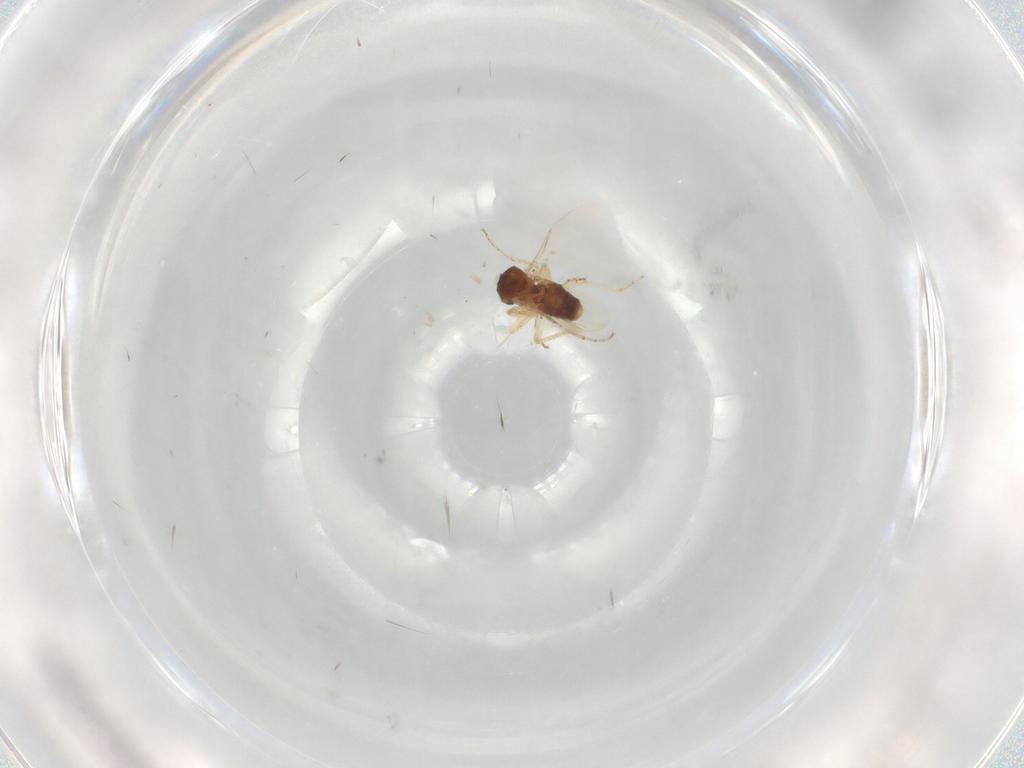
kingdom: Animalia
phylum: Arthropoda
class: Insecta
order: Diptera
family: Ceratopogonidae
